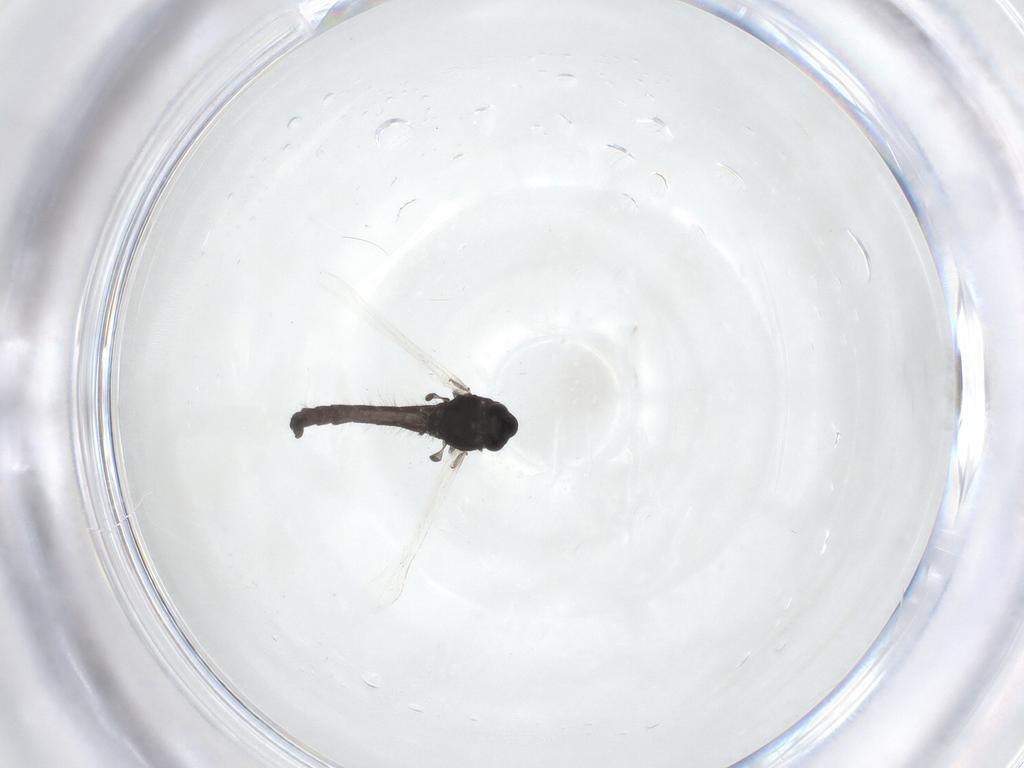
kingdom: Animalia
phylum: Arthropoda
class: Insecta
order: Diptera
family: Chironomidae
